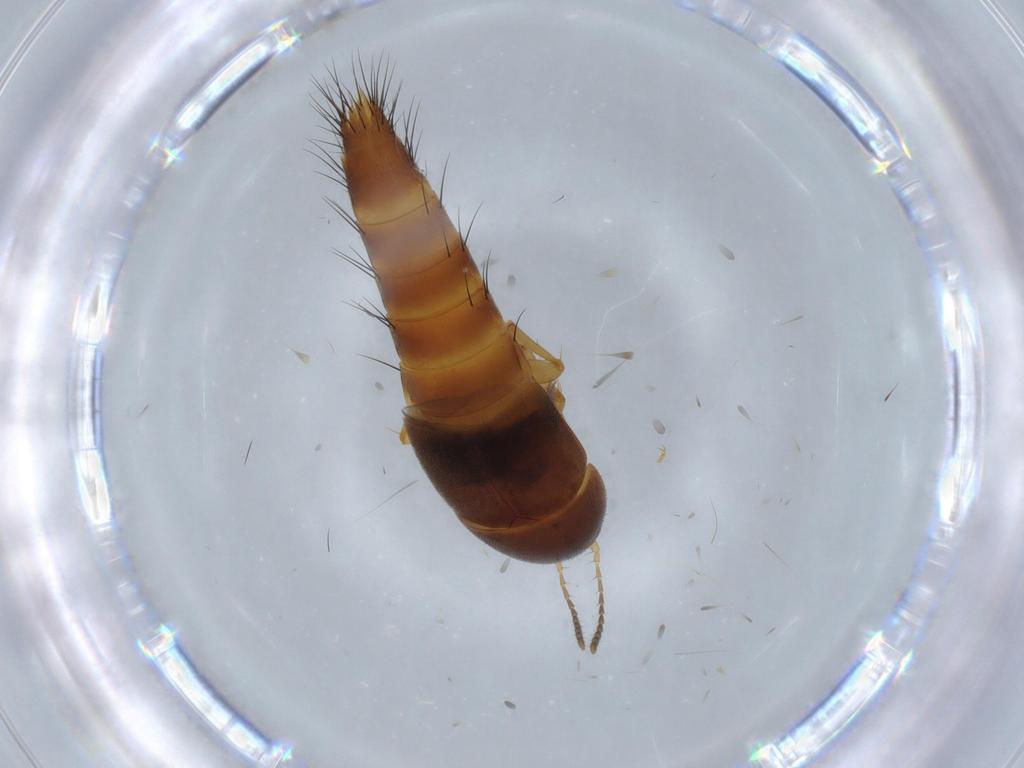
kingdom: Animalia
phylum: Arthropoda
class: Insecta
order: Coleoptera
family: Staphylinidae
